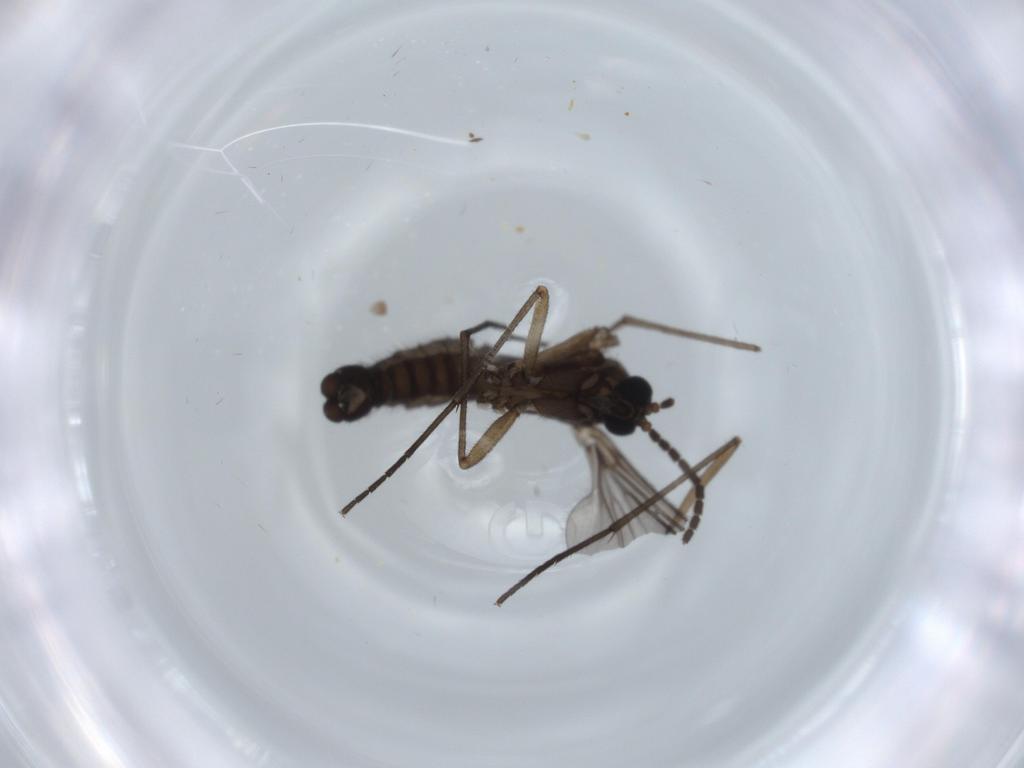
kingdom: Animalia
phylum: Arthropoda
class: Insecta
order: Diptera
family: Sciaridae
